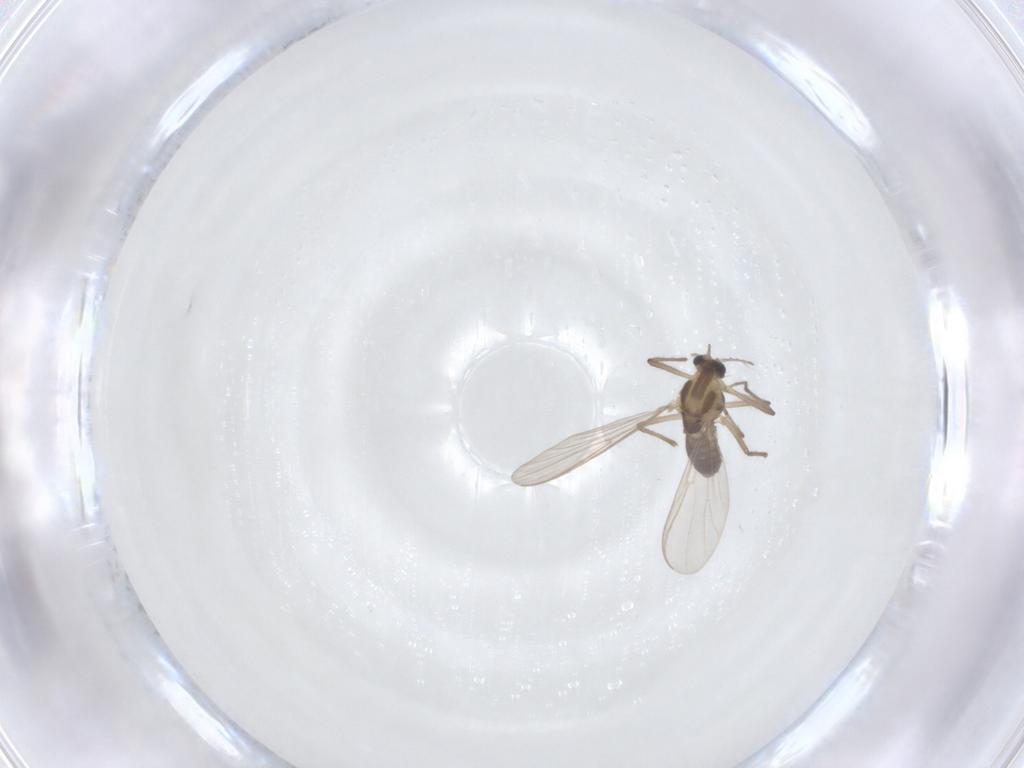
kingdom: Animalia
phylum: Arthropoda
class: Insecta
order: Diptera
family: Chironomidae
